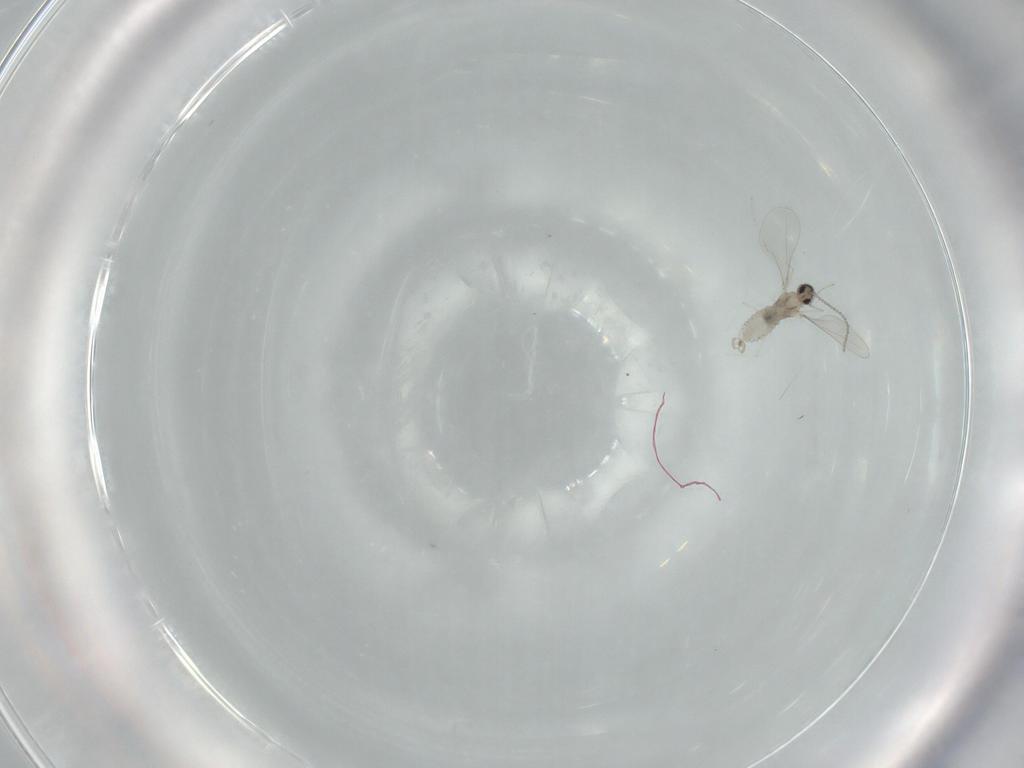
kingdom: Animalia
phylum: Arthropoda
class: Insecta
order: Diptera
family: Cecidomyiidae
